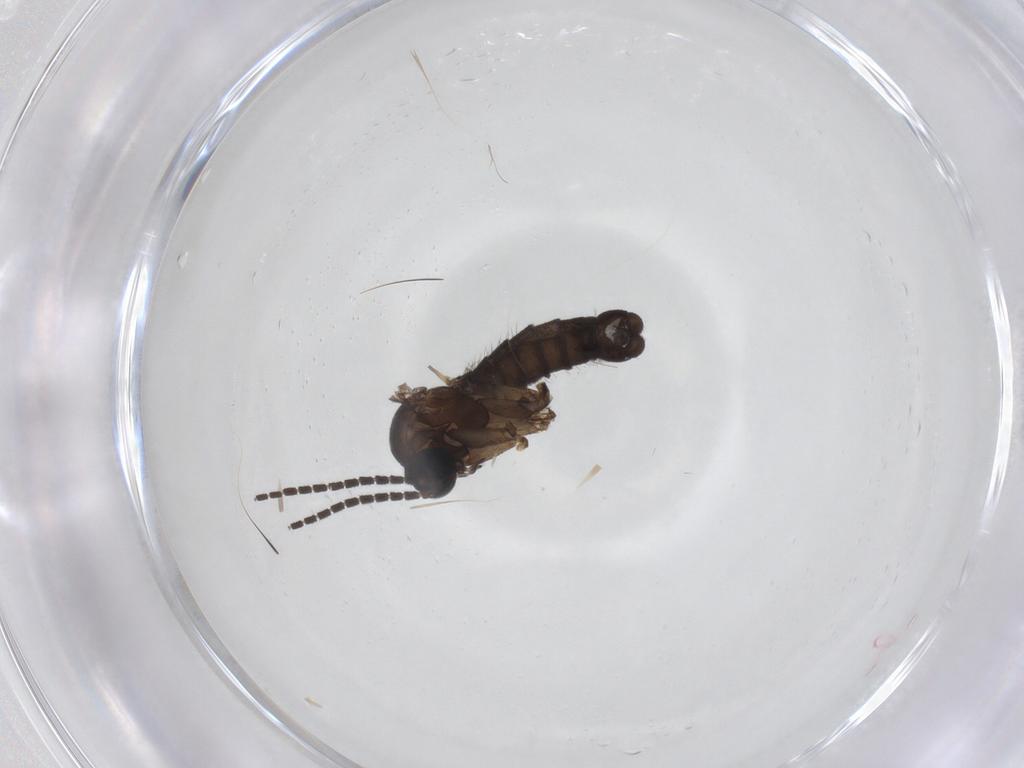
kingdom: Animalia
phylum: Arthropoda
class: Insecta
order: Diptera
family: Sciaridae
